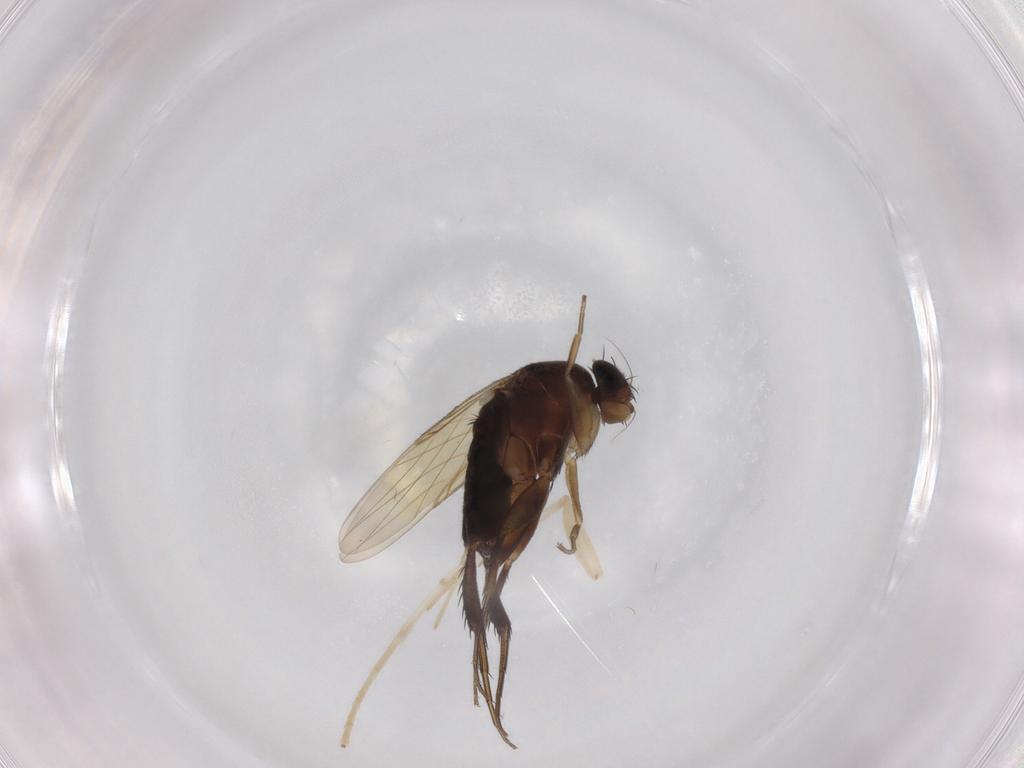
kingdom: Animalia
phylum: Arthropoda
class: Insecta
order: Diptera
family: Phoridae
